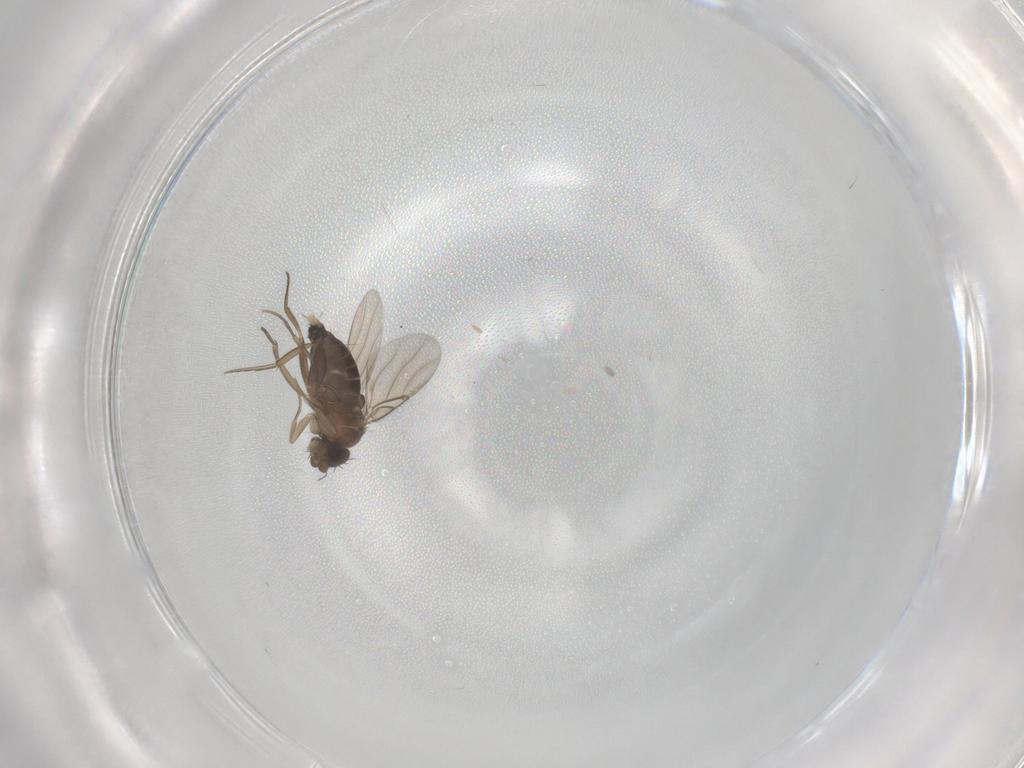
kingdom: Animalia
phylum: Arthropoda
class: Insecta
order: Diptera
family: Phoridae
